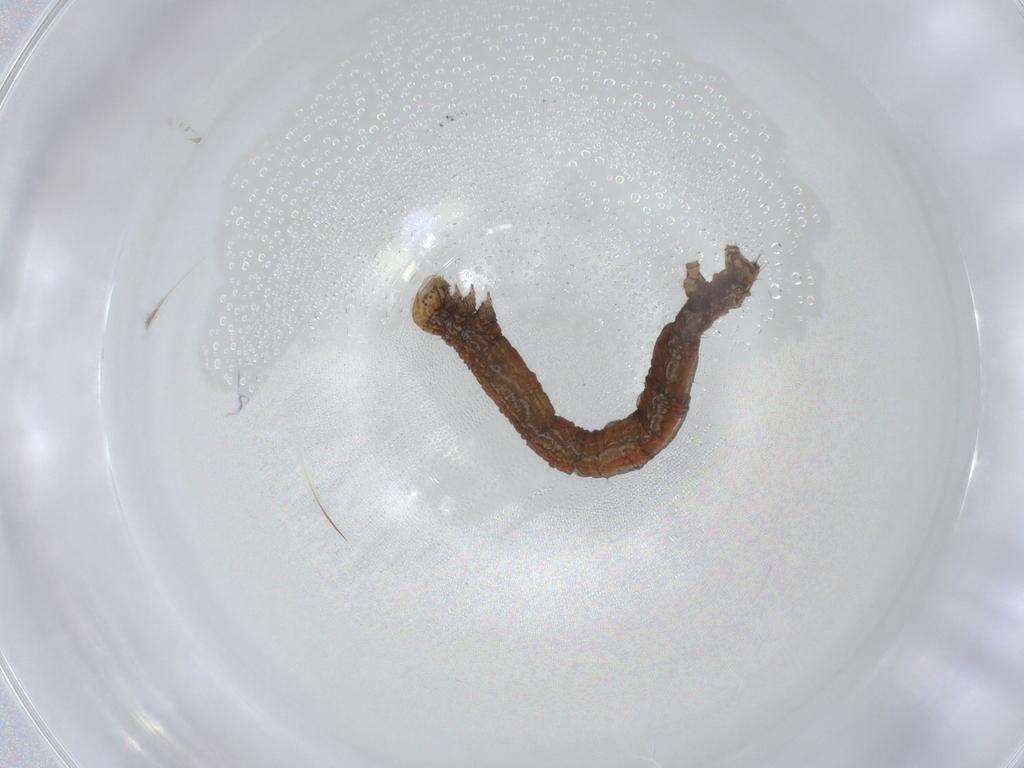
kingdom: Animalia
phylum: Arthropoda
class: Insecta
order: Lepidoptera
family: Geometridae
